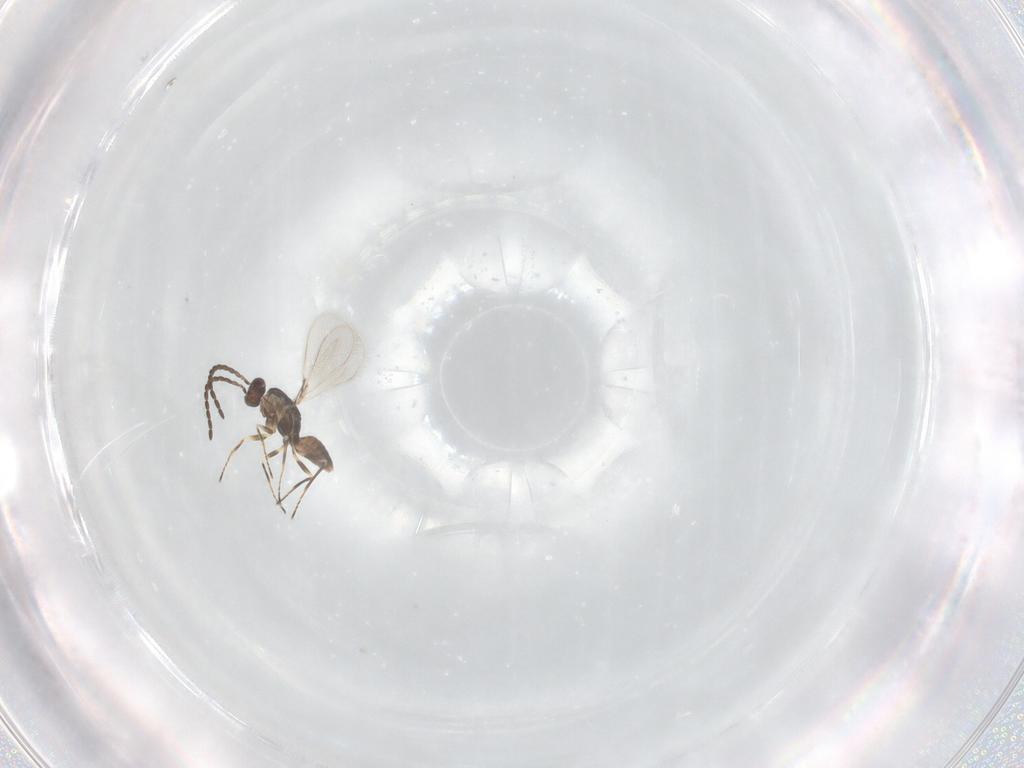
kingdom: Animalia
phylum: Arthropoda
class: Insecta
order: Hymenoptera
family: Mymaridae
